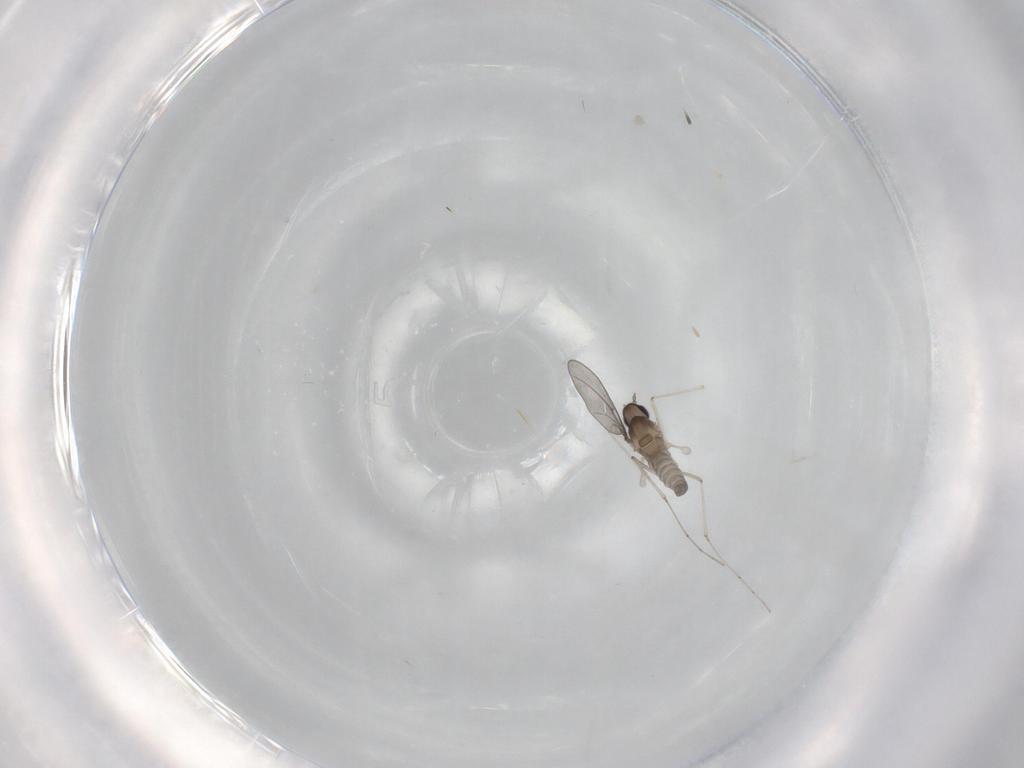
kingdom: Animalia
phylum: Arthropoda
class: Insecta
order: Diptera
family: Cecidomyiidae
